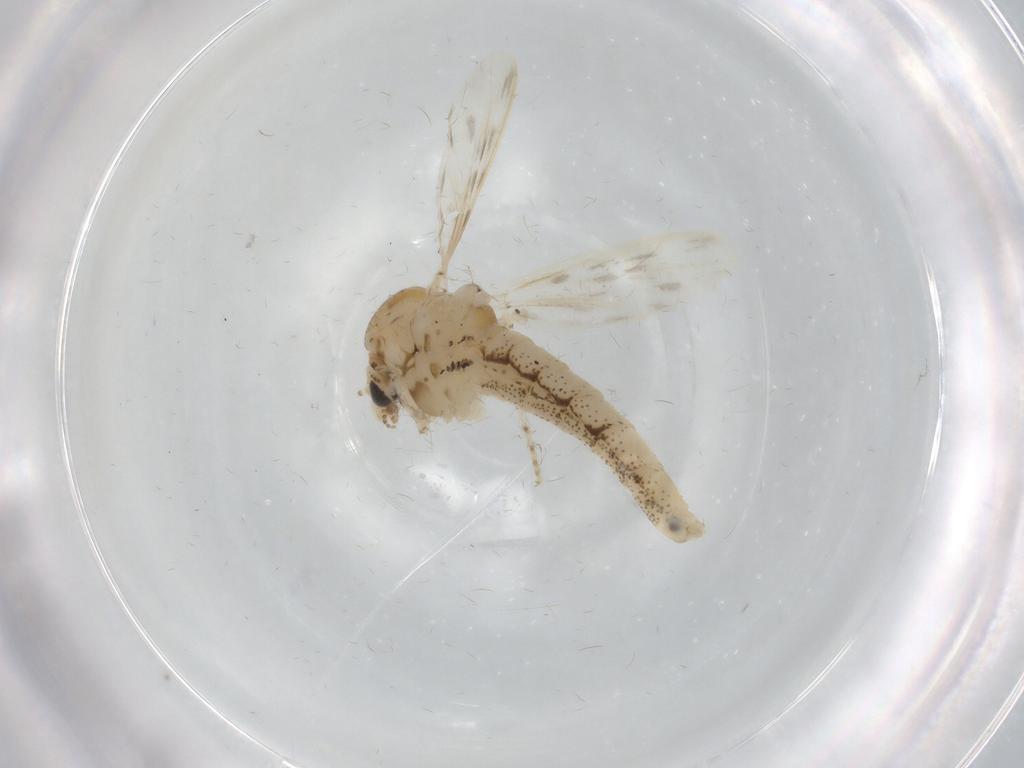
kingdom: Animalia
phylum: Arthropoda
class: Insecta
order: Diptera
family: Chaoboridae
